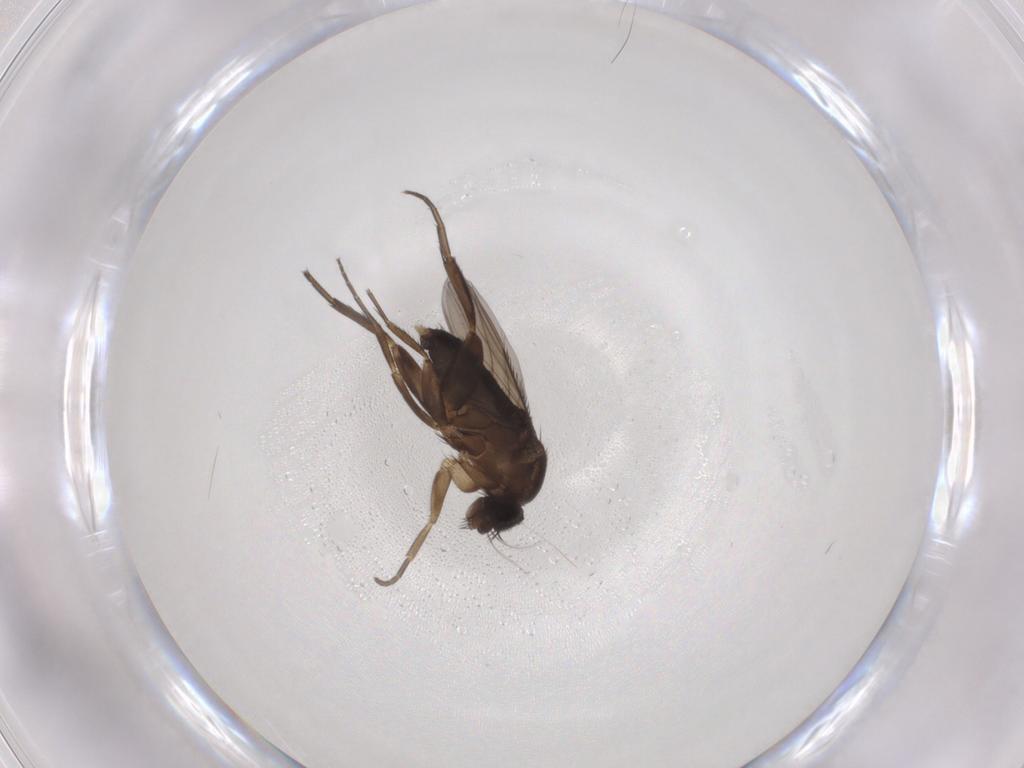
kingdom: Animalia
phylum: Arthropoda
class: Insecta
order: Diptera
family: Phoridae
